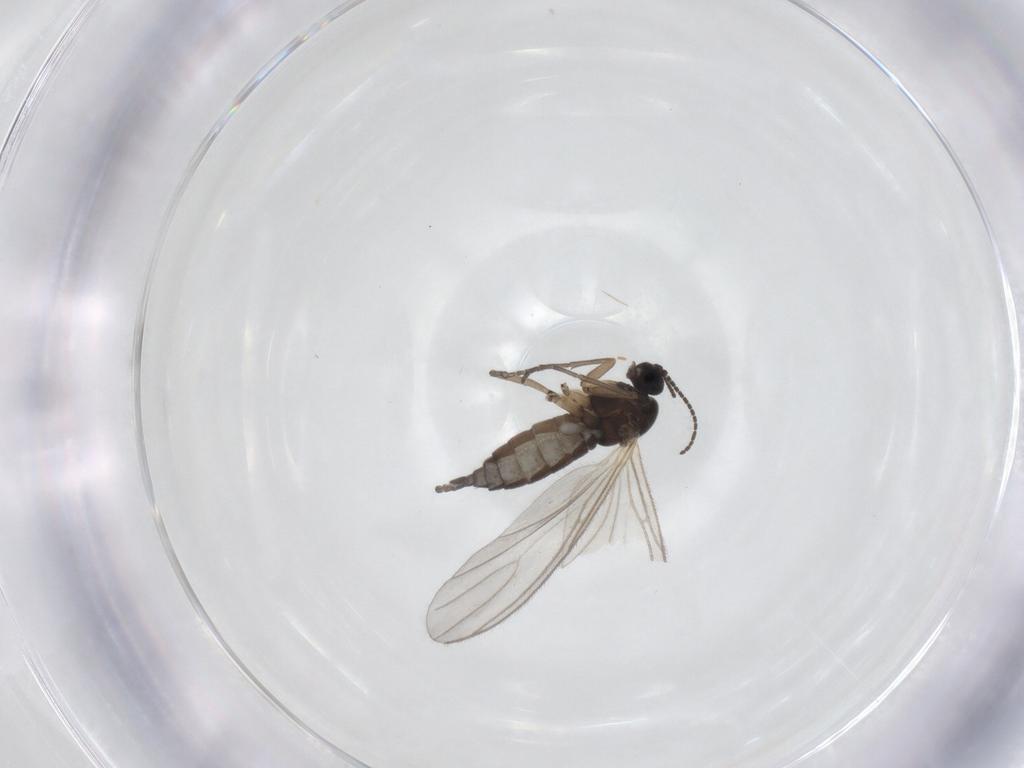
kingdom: Animalia
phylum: Arthropoda
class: Insecta
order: Diptera
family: Sciaridae
